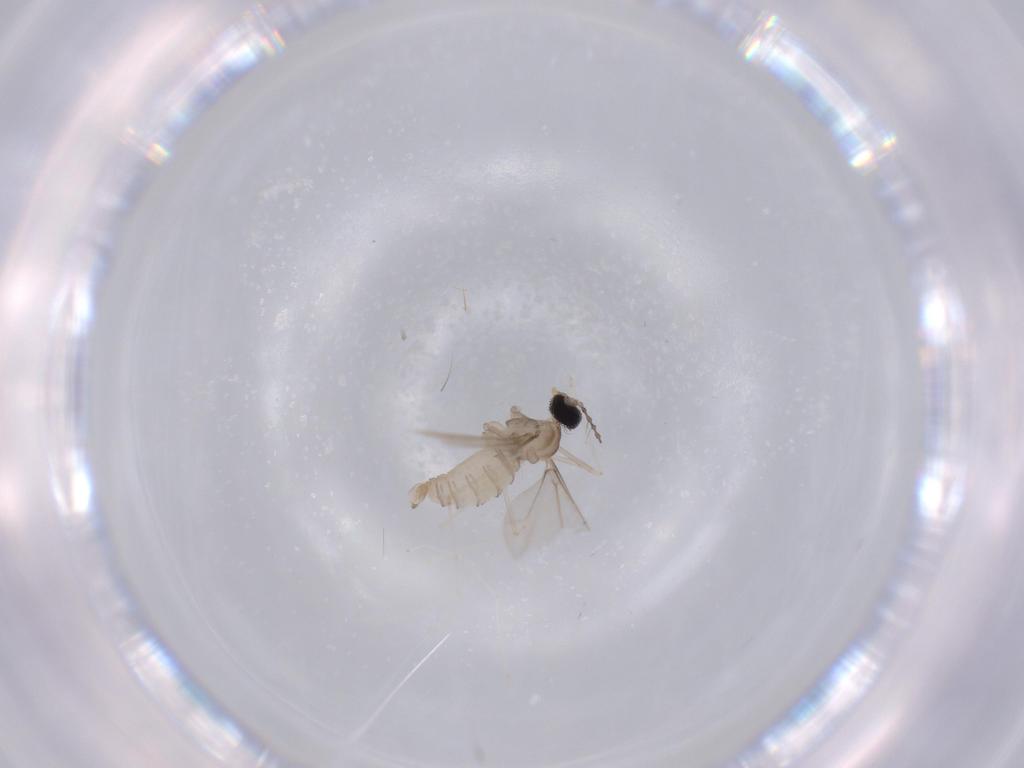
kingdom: Animalia
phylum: Arthropoda
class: Insecta
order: Diptera
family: Cecidomyiidae
